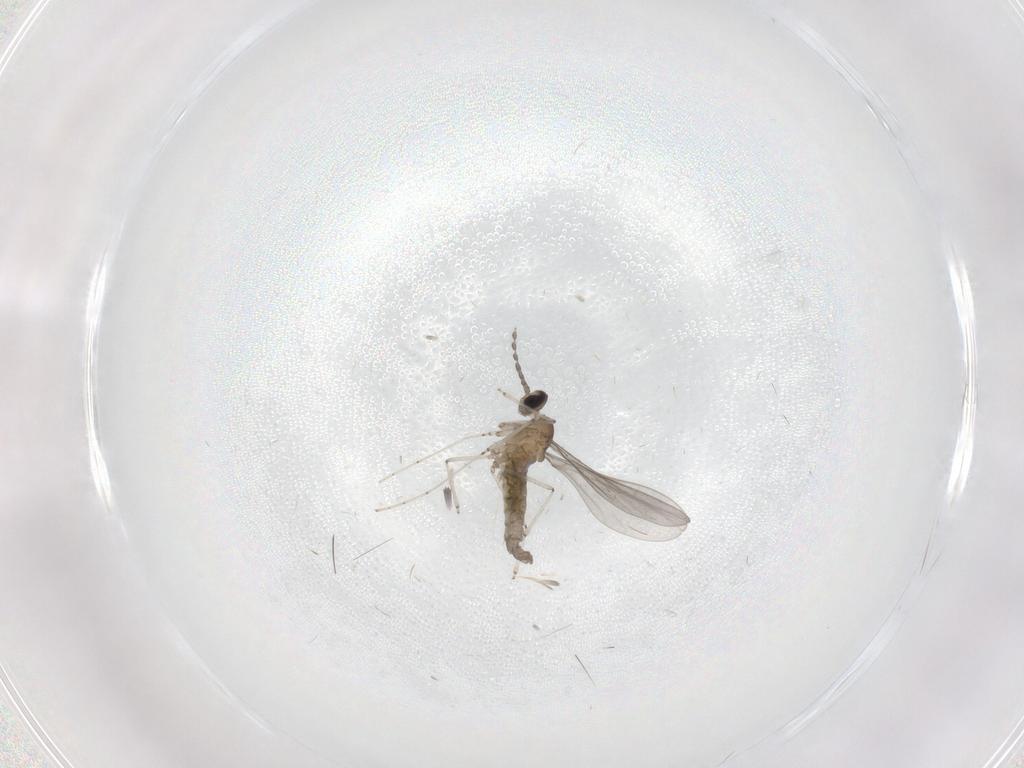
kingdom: Animalia
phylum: Arthropoda
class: Insecta
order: Diptera
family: Cecidomyiidae
